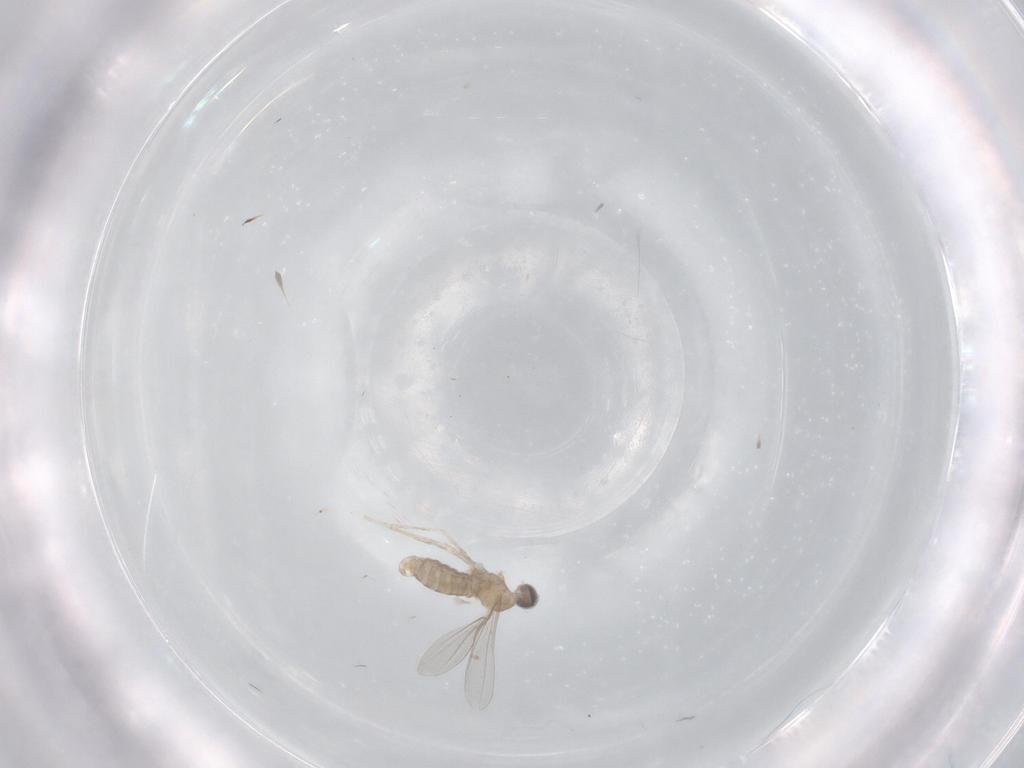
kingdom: Animalia
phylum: Arthropoda
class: Insecta
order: Diptera
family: Cecidomyiidae
